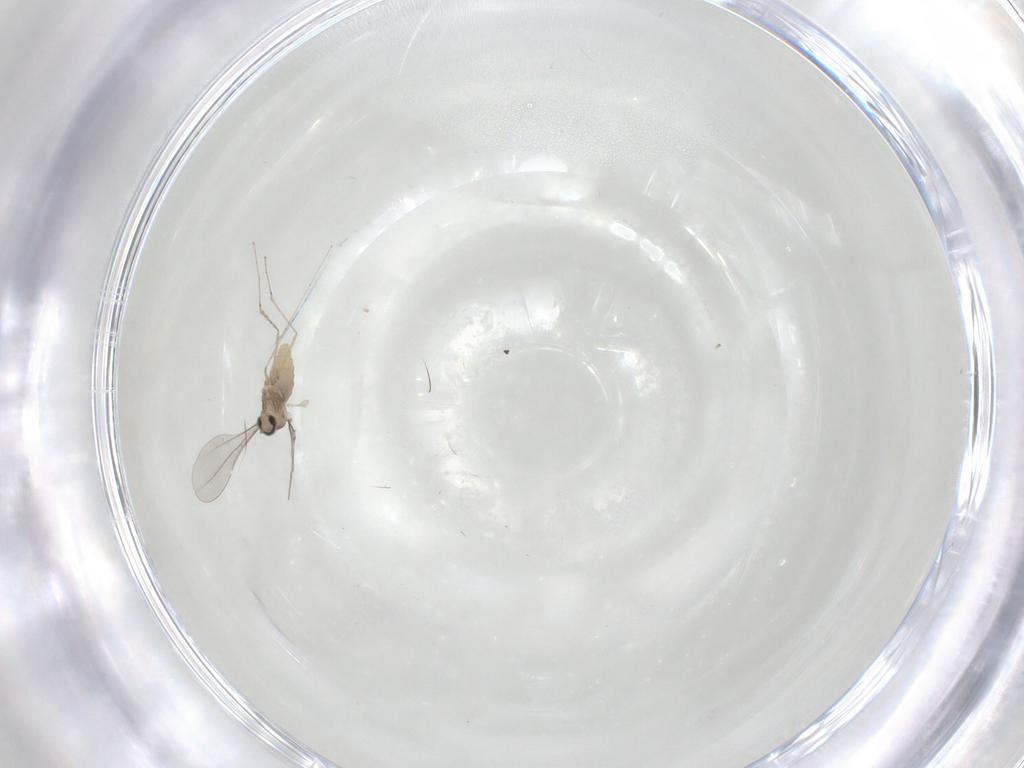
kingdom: Animalia
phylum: Arthropoda
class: Insecta
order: Diptera
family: Cecidomyiidae
